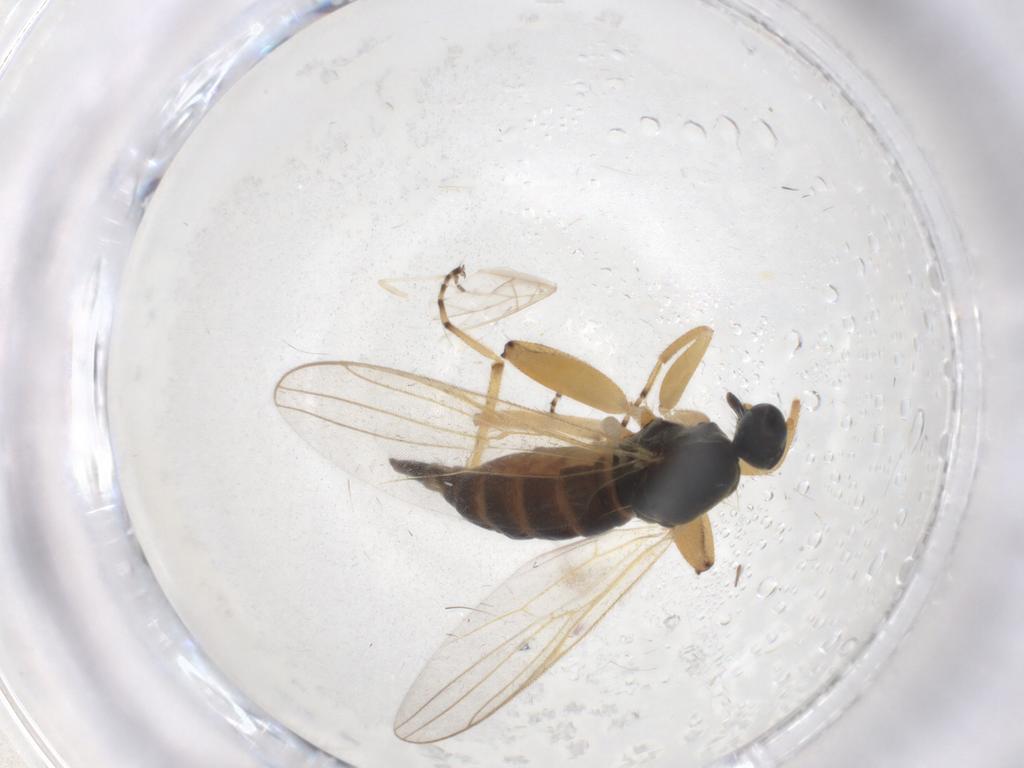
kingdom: Animalia
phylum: Arthropoda
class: Insecta
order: Diptera
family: Hybotidae
